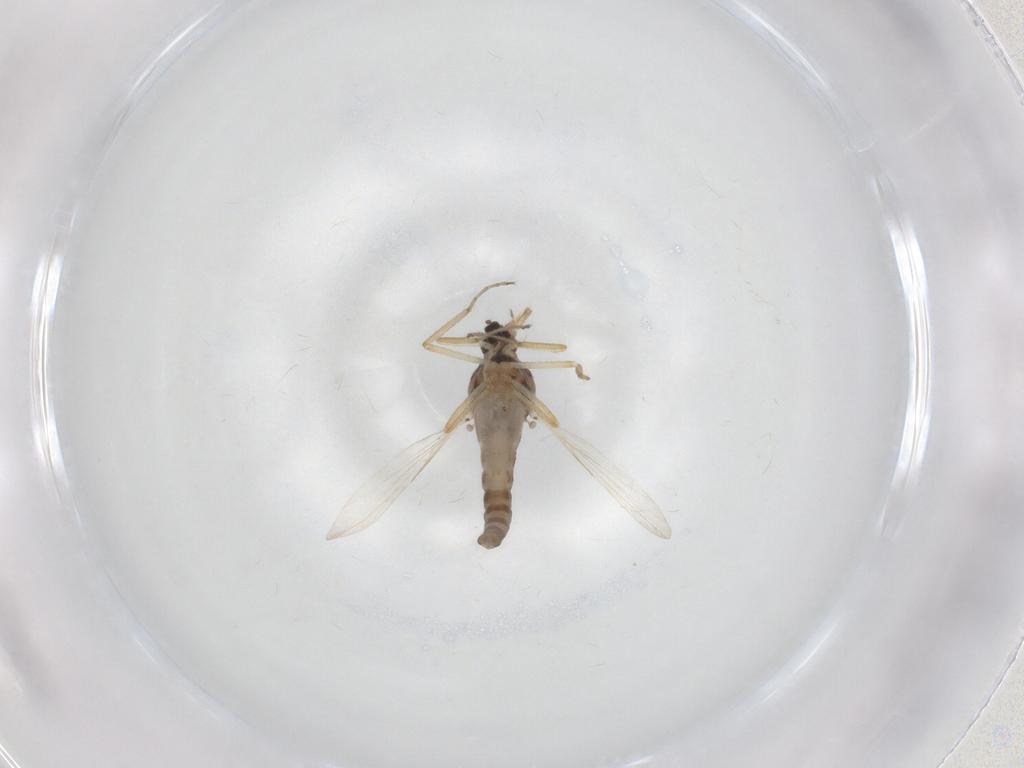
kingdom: Animalia
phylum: Arthropoda
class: Insecta
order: Diptera
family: Ceratopogonidae
